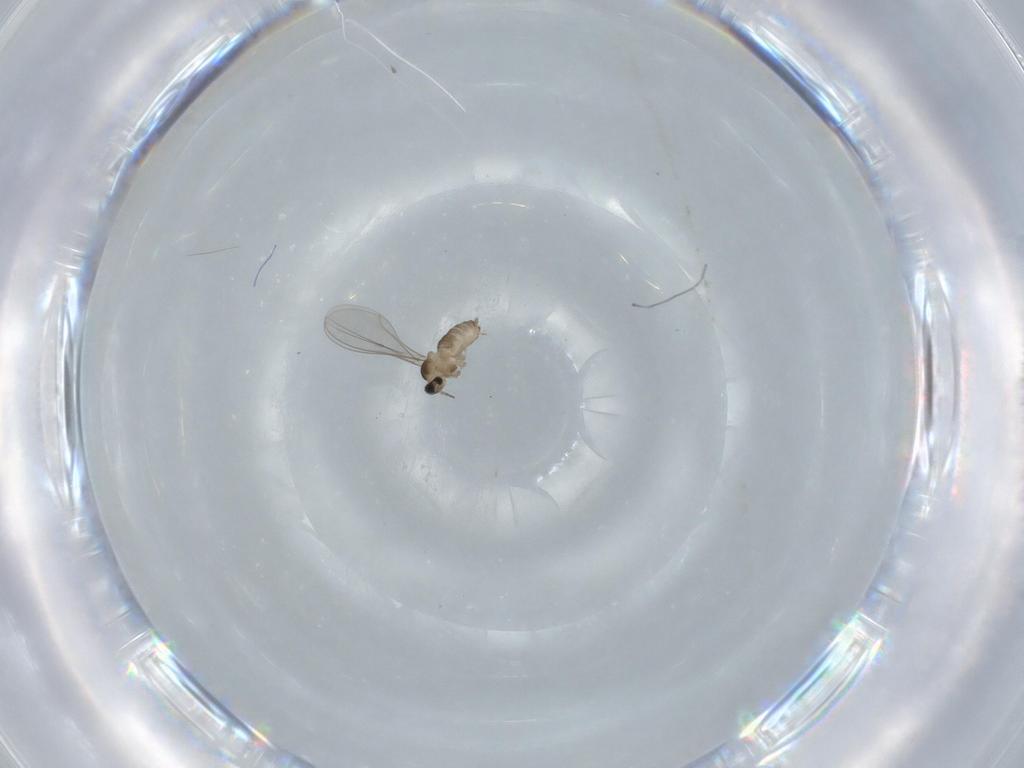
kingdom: Animalia
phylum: Arthropoda
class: Insecta
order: Diptera
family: Cecidomyiidae
